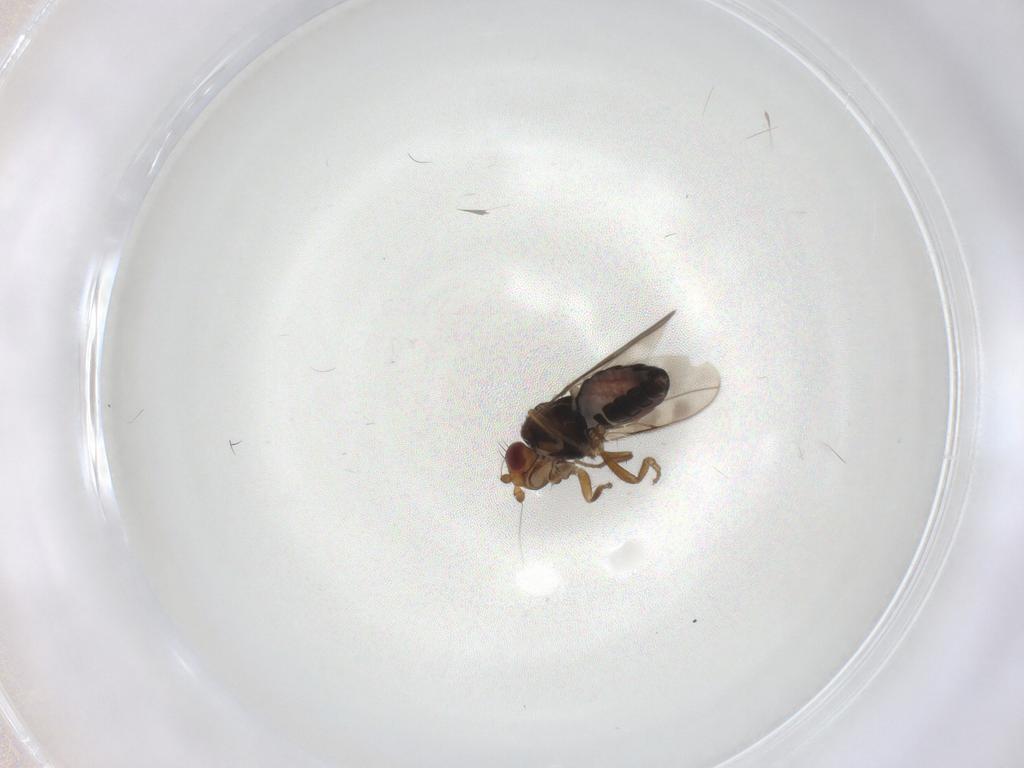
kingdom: Animalia
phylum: Arthropoda
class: Insecta
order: Diptera
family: Sphaeroceridae
